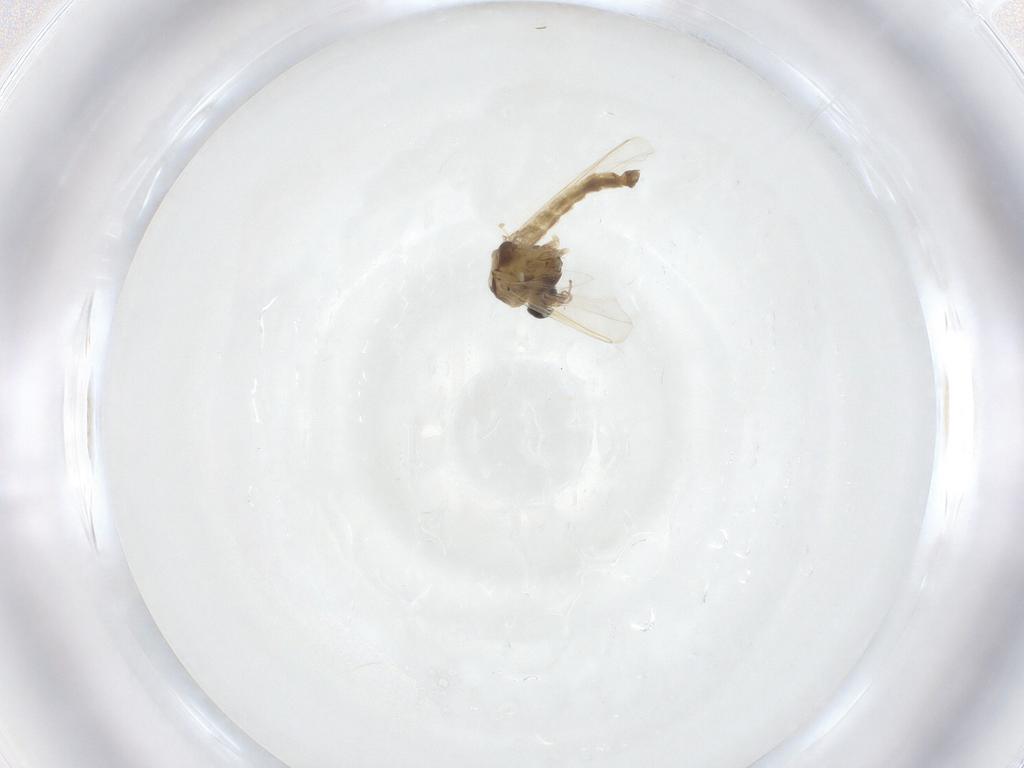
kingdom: Animalia
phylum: Arthropoda
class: Insecta
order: Diptera
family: Chironomidae
